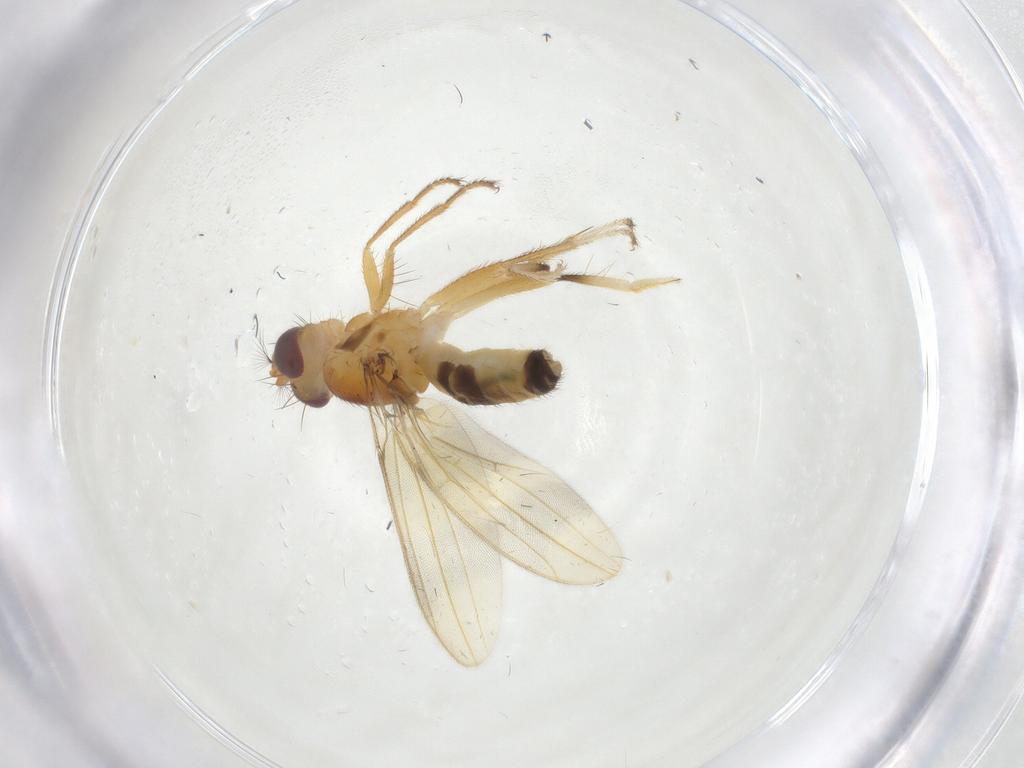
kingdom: Animalia
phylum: Arthropoda
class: Insecta
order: Diptera
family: Periscelididae
